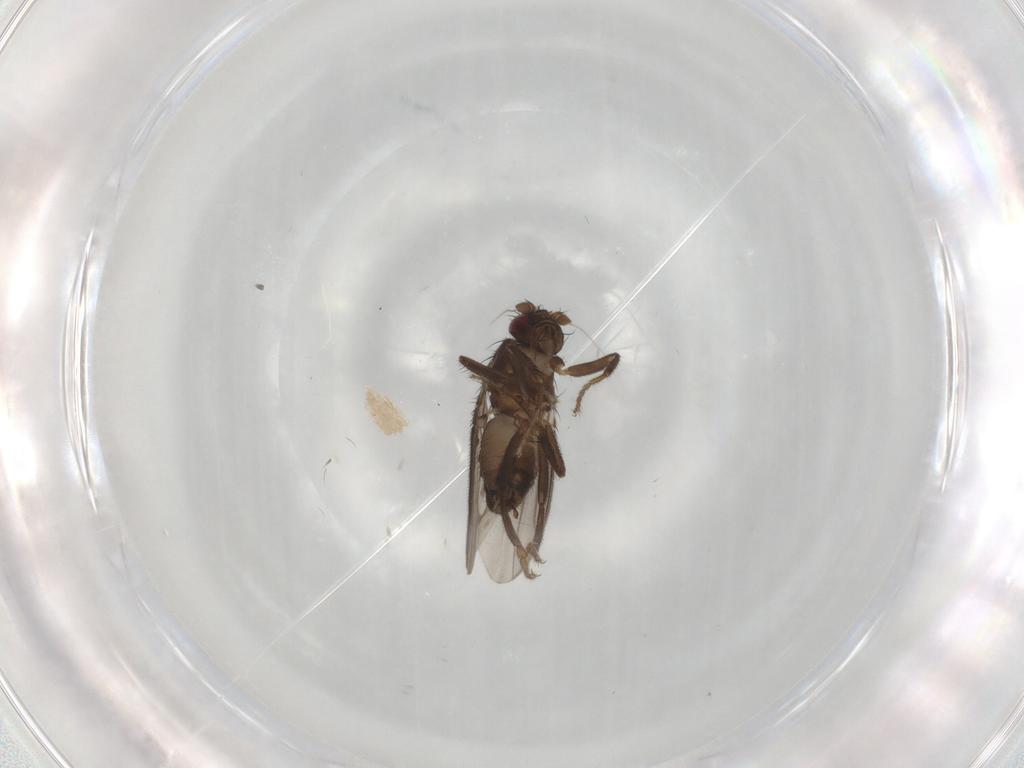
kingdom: Animalia
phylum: Arthropoda
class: Insecta
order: Diptera
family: Sphaeroceridae
